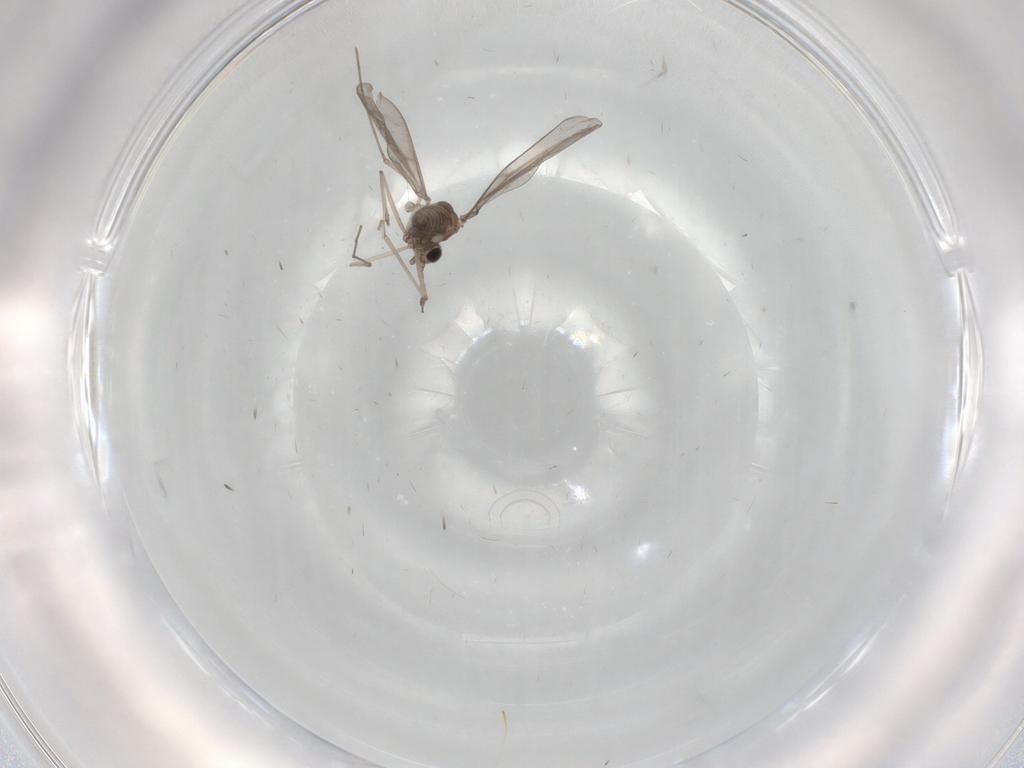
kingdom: Animalia
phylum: Arthropoda
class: Insecta
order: Diptera
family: Cecidomyiidae
